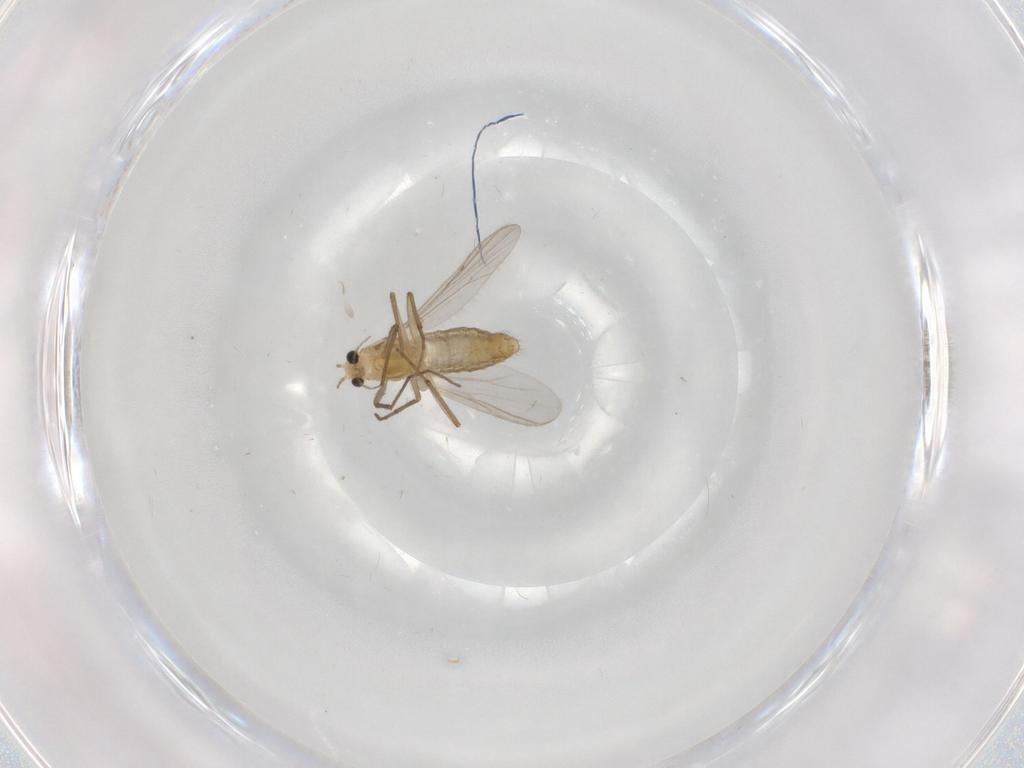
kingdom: Animalia
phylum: Arthropoda
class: Insecta
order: Diptera
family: Chironomidae
